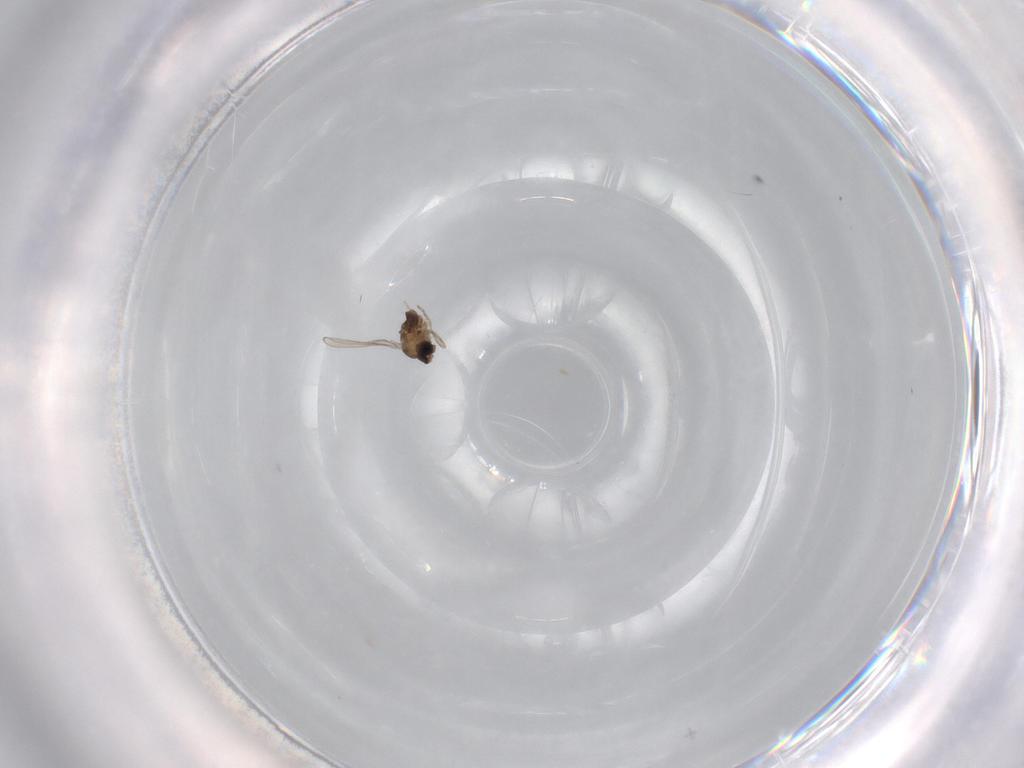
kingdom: Animalia
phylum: Arthropoda
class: Insecta
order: Diptera
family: Cecidomyiidae
